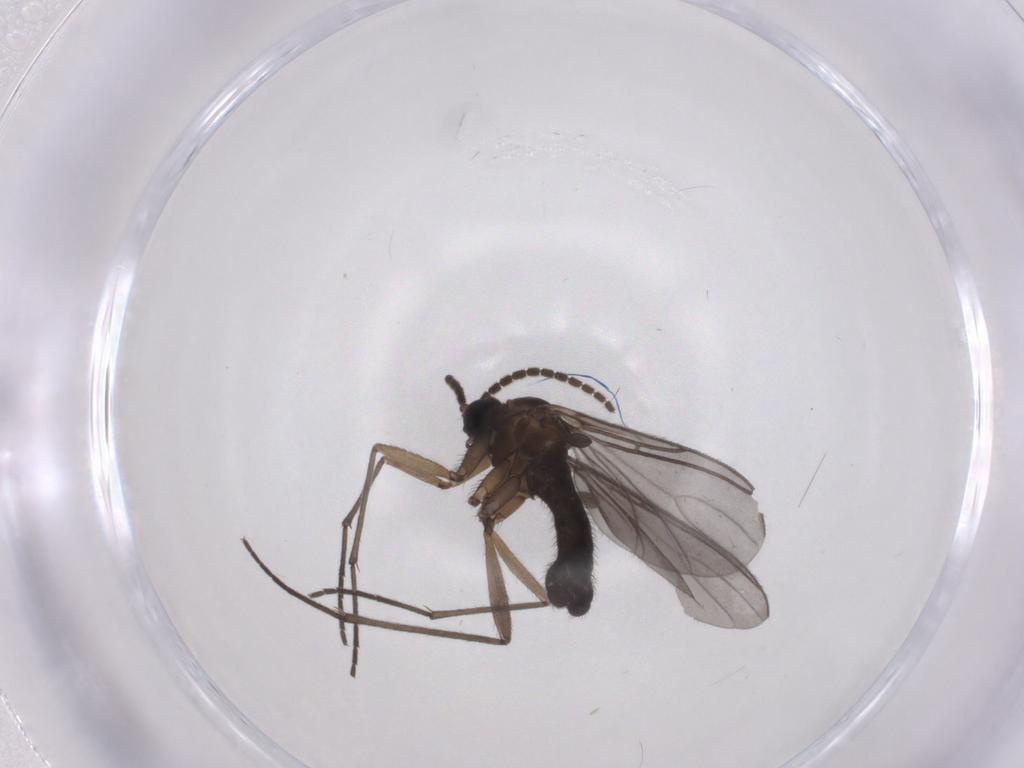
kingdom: Animalia
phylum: Arthropoda
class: Insecta
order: Diptera
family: Sciaridae
